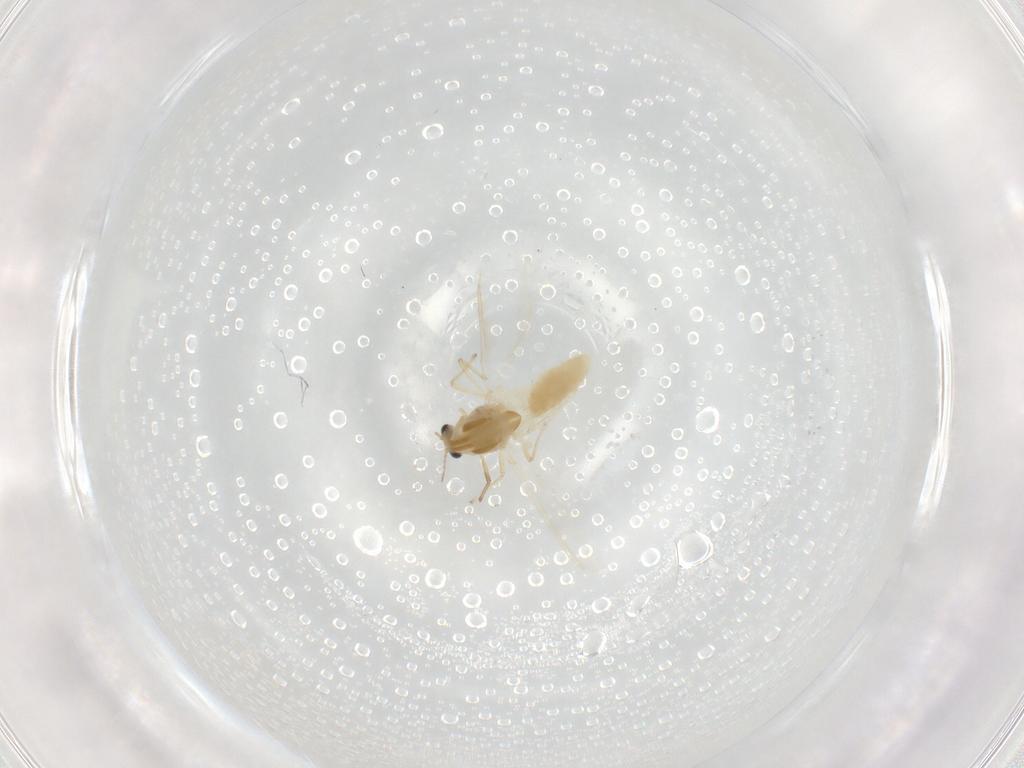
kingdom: Animalia
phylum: Arthropoda
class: Insecta
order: Diptera
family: Chironomidae
